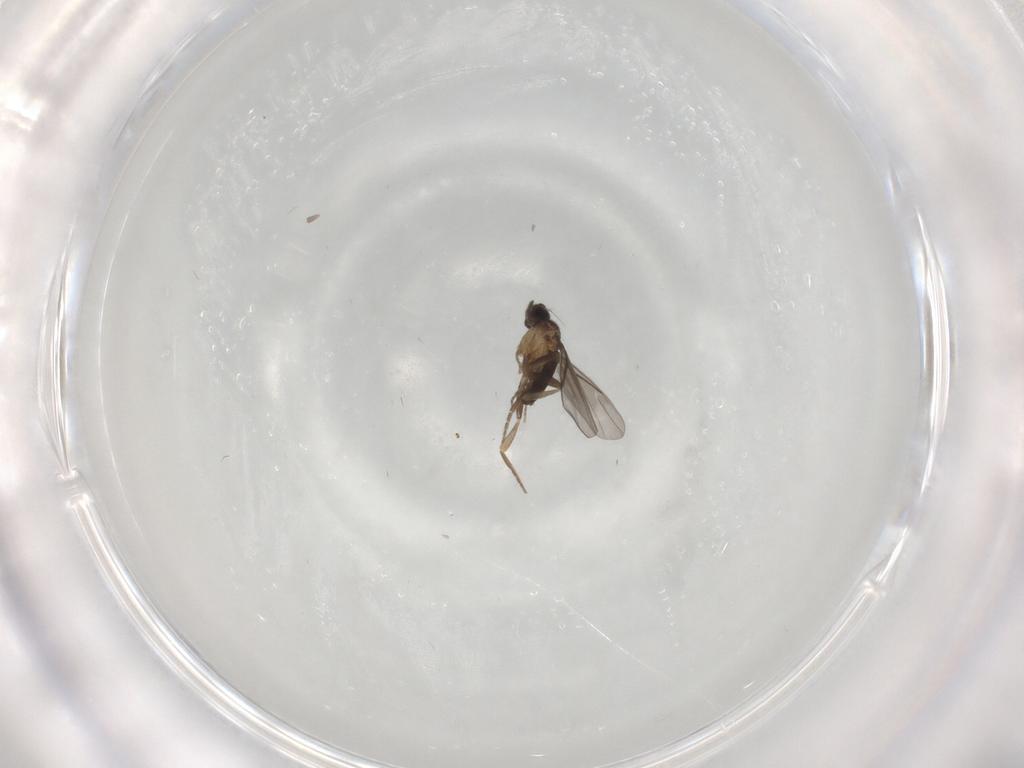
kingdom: Animalia
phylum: Arthropoda
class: Insecta
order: Diptera
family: Cecidomyiidae
